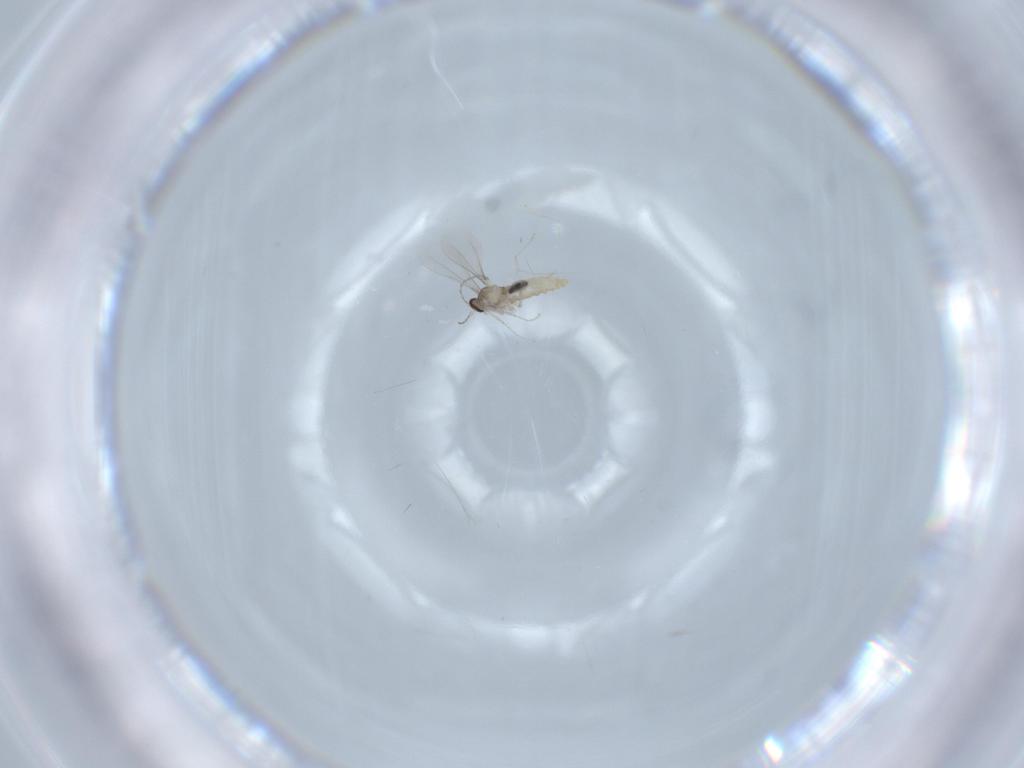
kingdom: Animalia
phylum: Arthropoda
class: Insecta
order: Diptera
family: Cecidomyiidae
